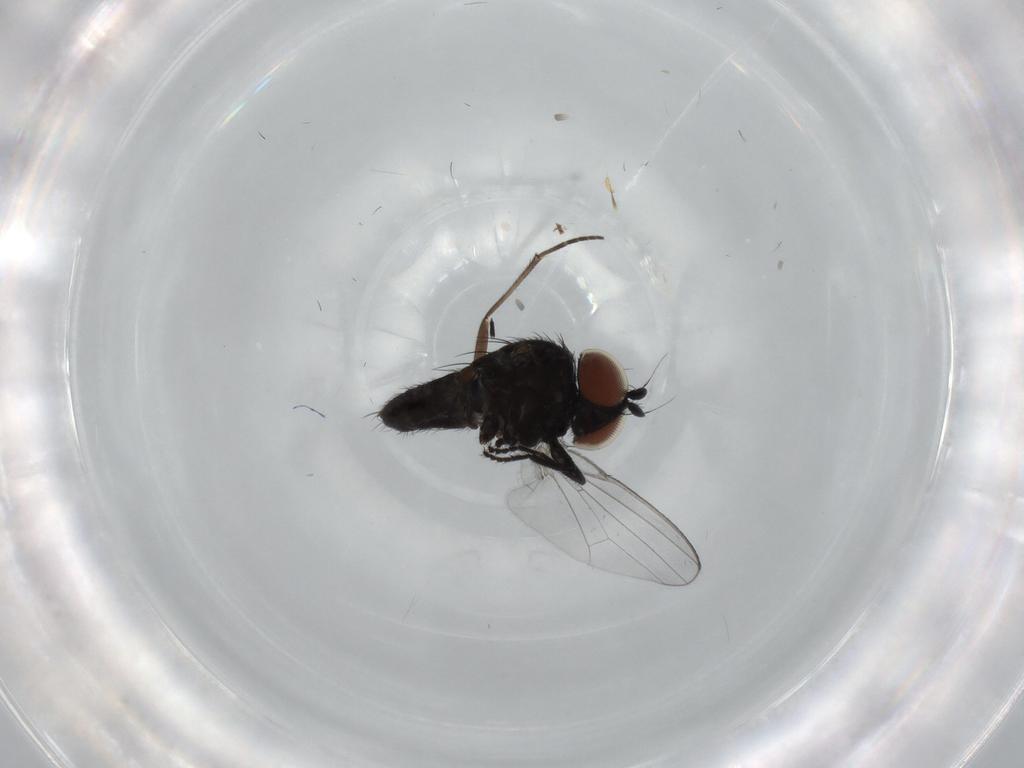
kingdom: Animalia
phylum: Arthropoda
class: Insecta
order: Diptera
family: Sciaridae
